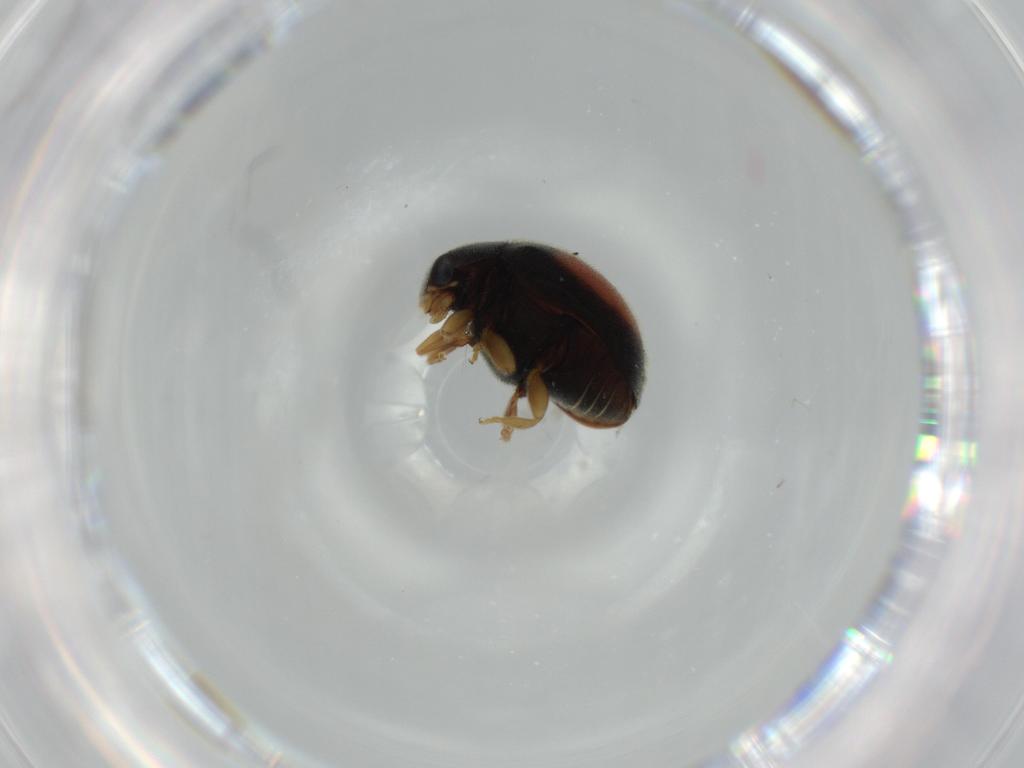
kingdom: Animalia
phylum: Arthropoda
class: Insecta
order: Coleoptera
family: Coccinellidae
